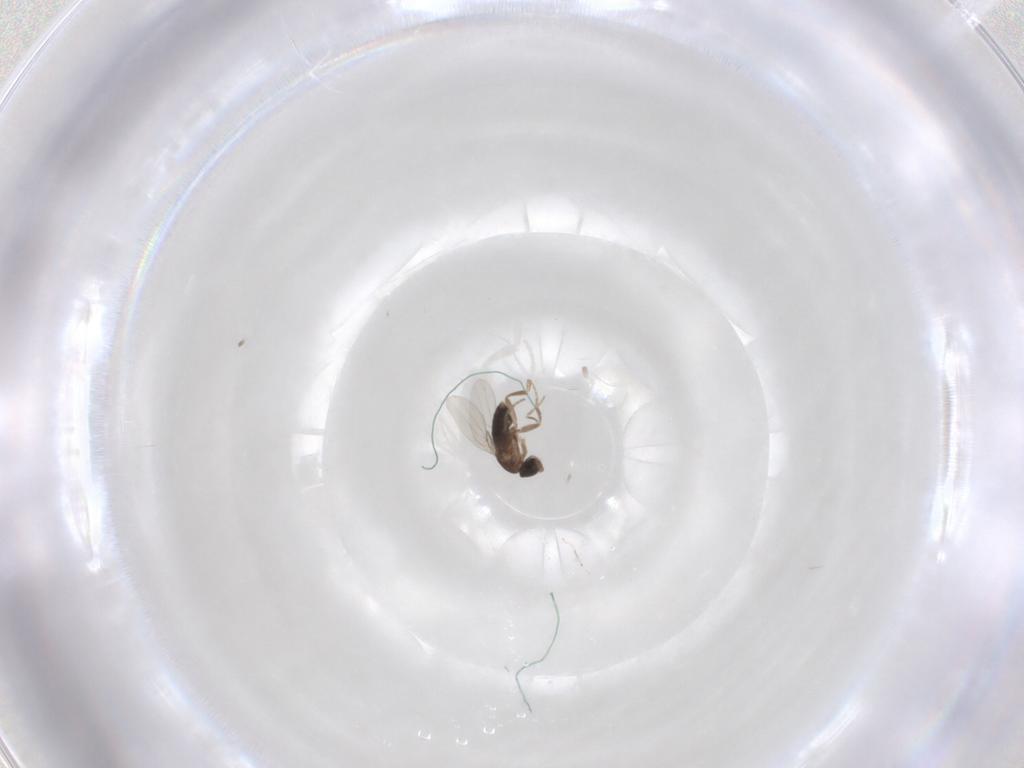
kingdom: Animalia
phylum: Arthropoda
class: Insecta
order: Diptera
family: Phoridae
